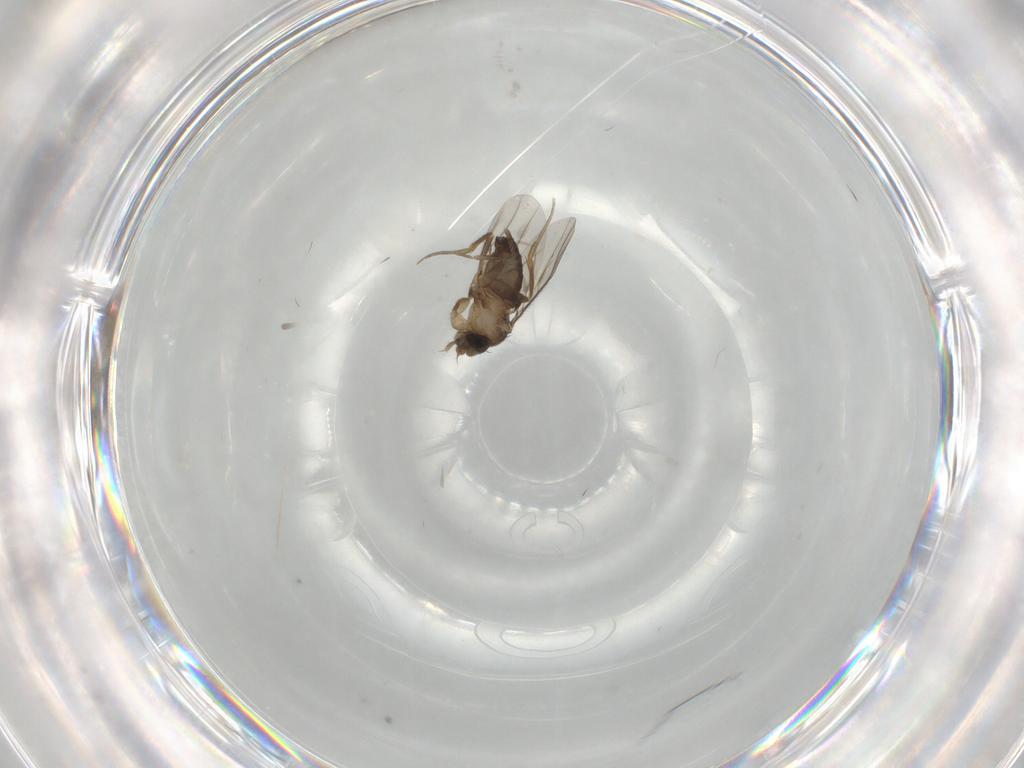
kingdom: Animalia
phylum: Arthropoda
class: Insecta
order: Diptera
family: Phoridae
